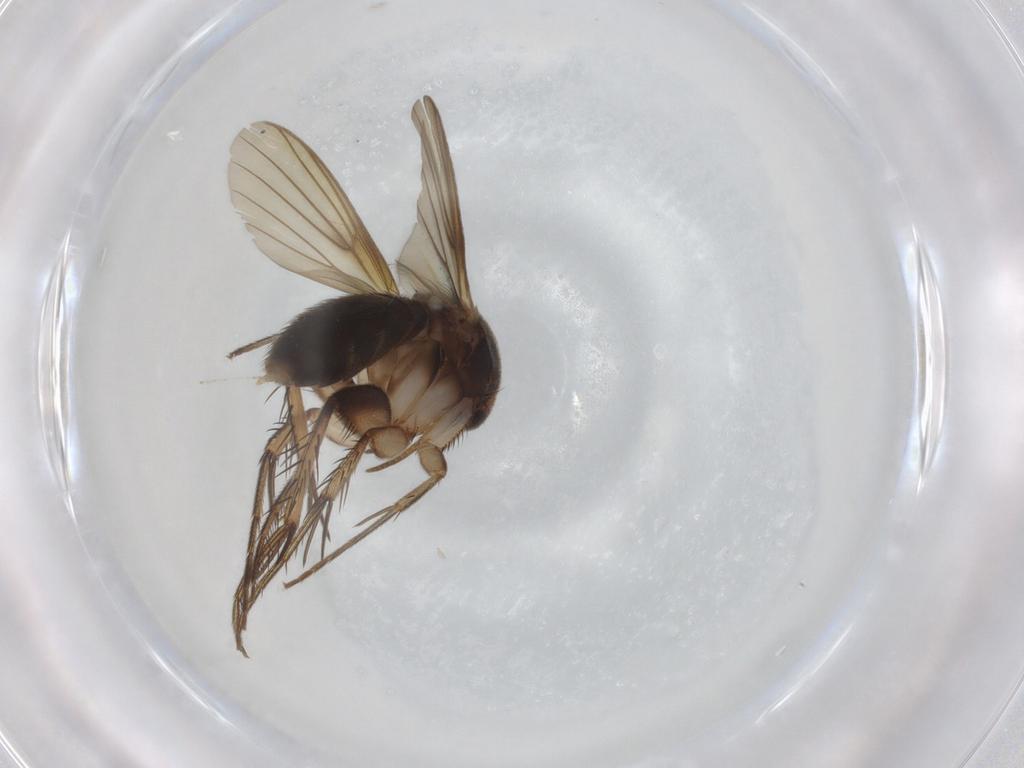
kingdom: Animalia
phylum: Arthropoda
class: Insecta
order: Diptera
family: Mycetophilidae
